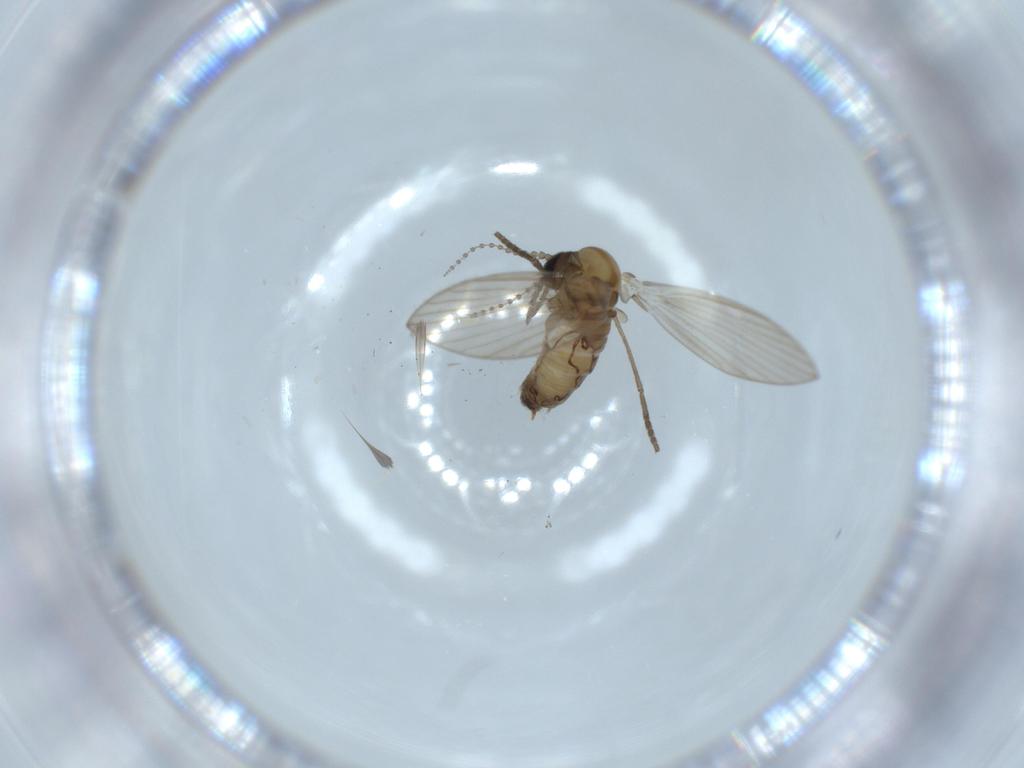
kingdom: Animalia
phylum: Arthropoda
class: Insecta
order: Diptera
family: Psychodidae
